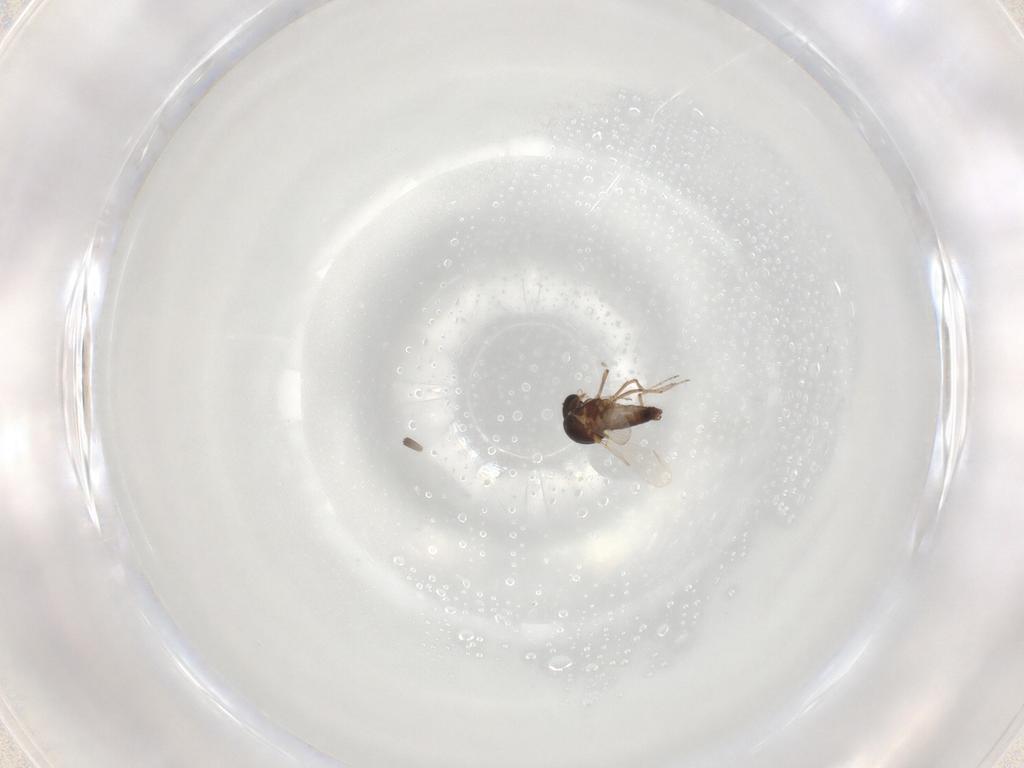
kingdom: Animalia
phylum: Arthropoda
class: Insecta
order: Diptera
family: Ceratopogonidae
